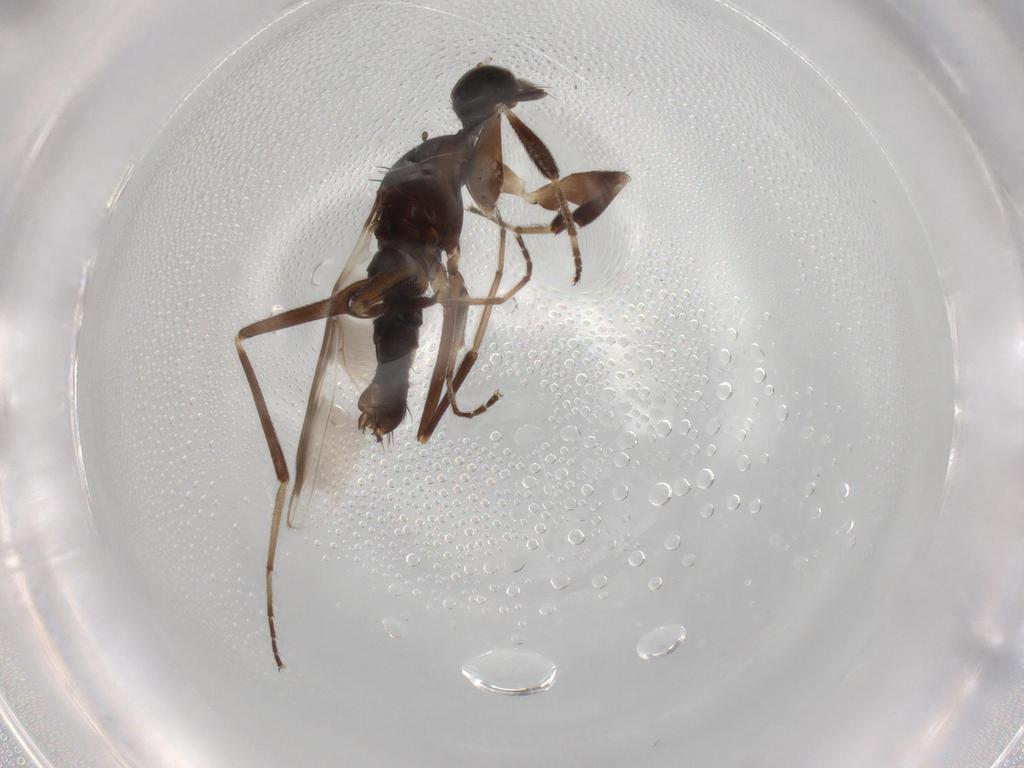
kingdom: Animalia
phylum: Arthropoda
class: Insecta
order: Diptera
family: Hybotidae
